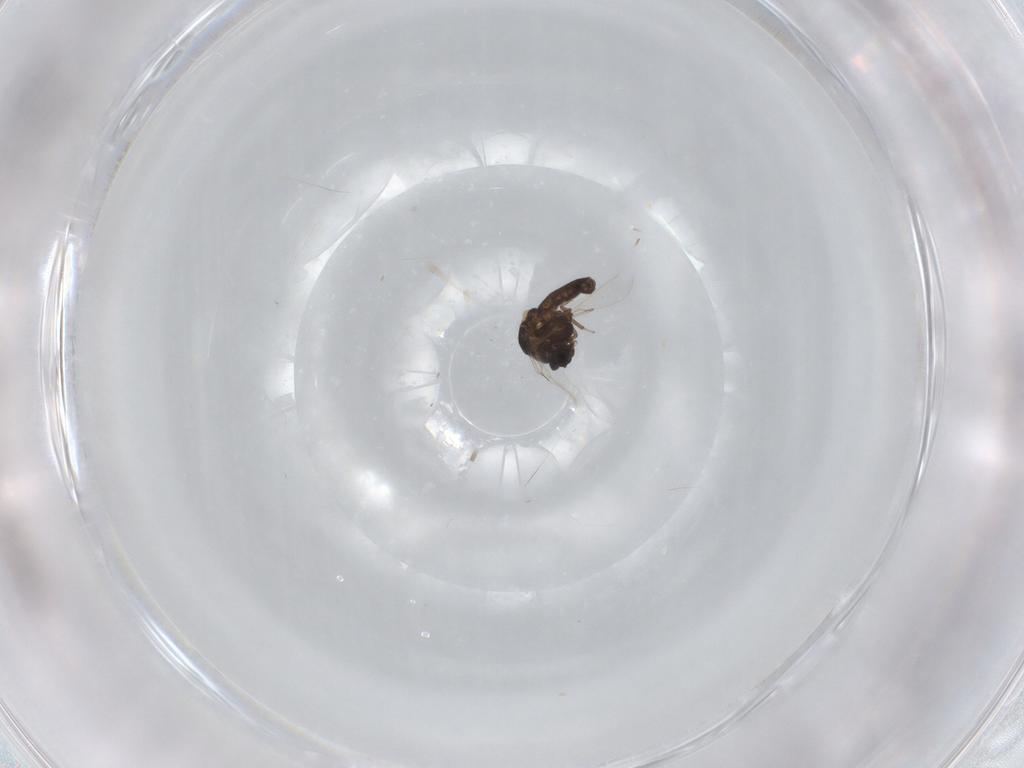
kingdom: Animalia
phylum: Arthropoda
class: Insecta
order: Diptera
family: Ceratopogonidae
